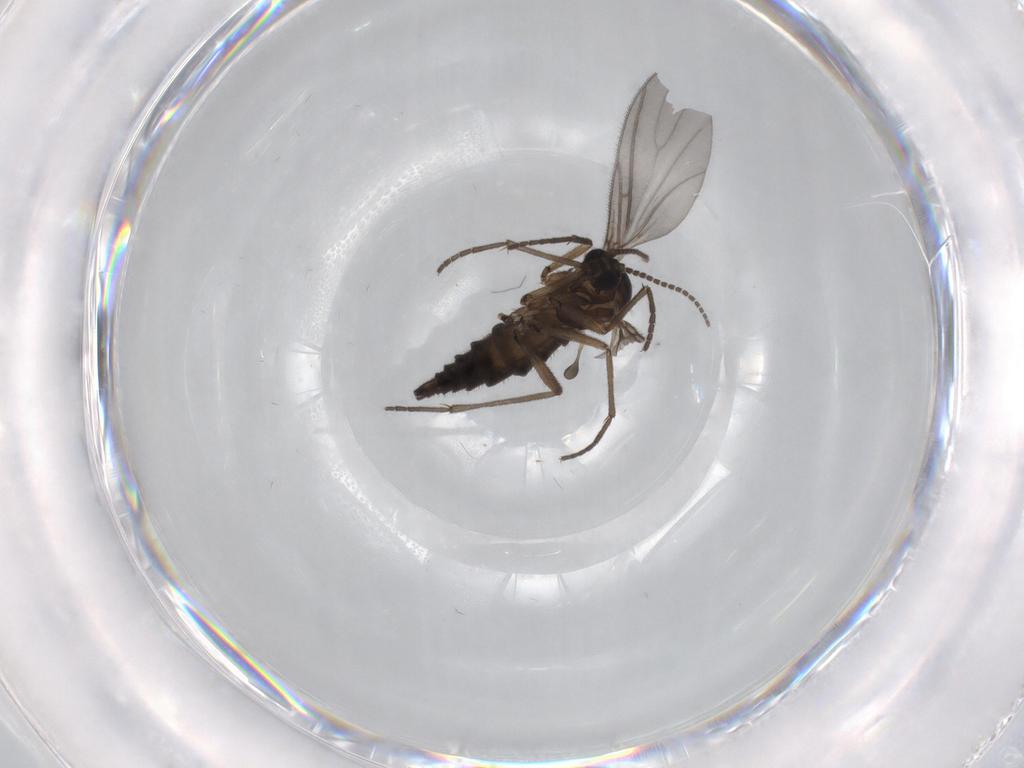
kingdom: Animalia
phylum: Arthropoda
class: Insecta
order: Diptera
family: Sciaridae
